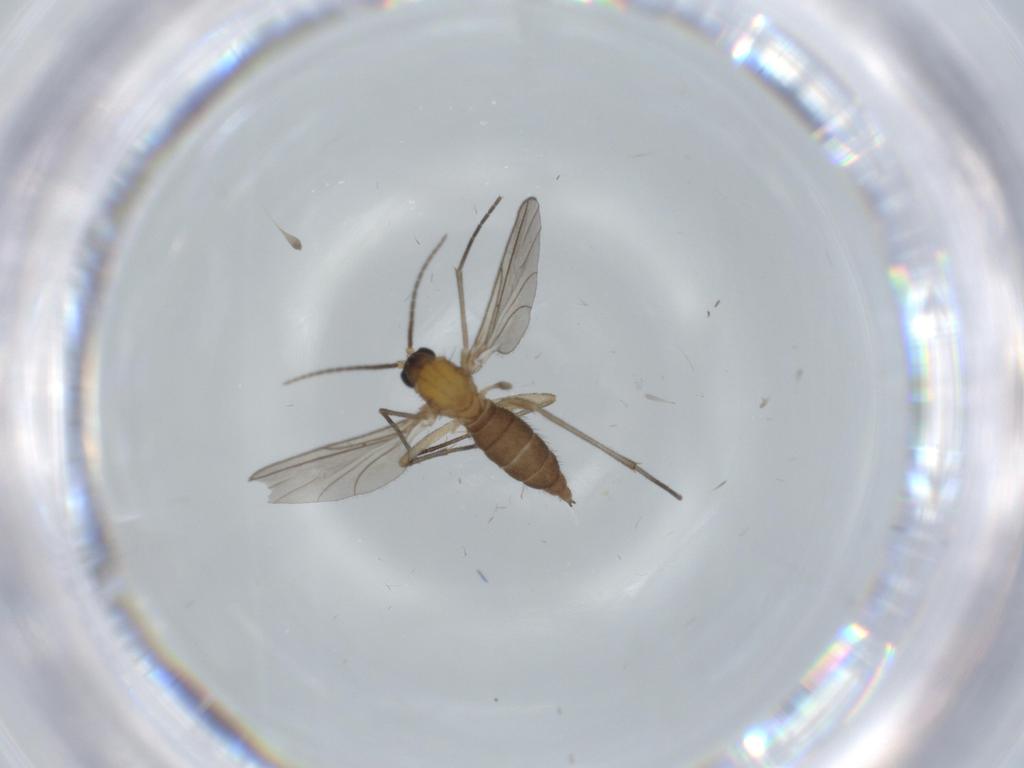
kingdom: Animalia
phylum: Arthropoda
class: Insecta
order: Diptera
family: Sciaridae
